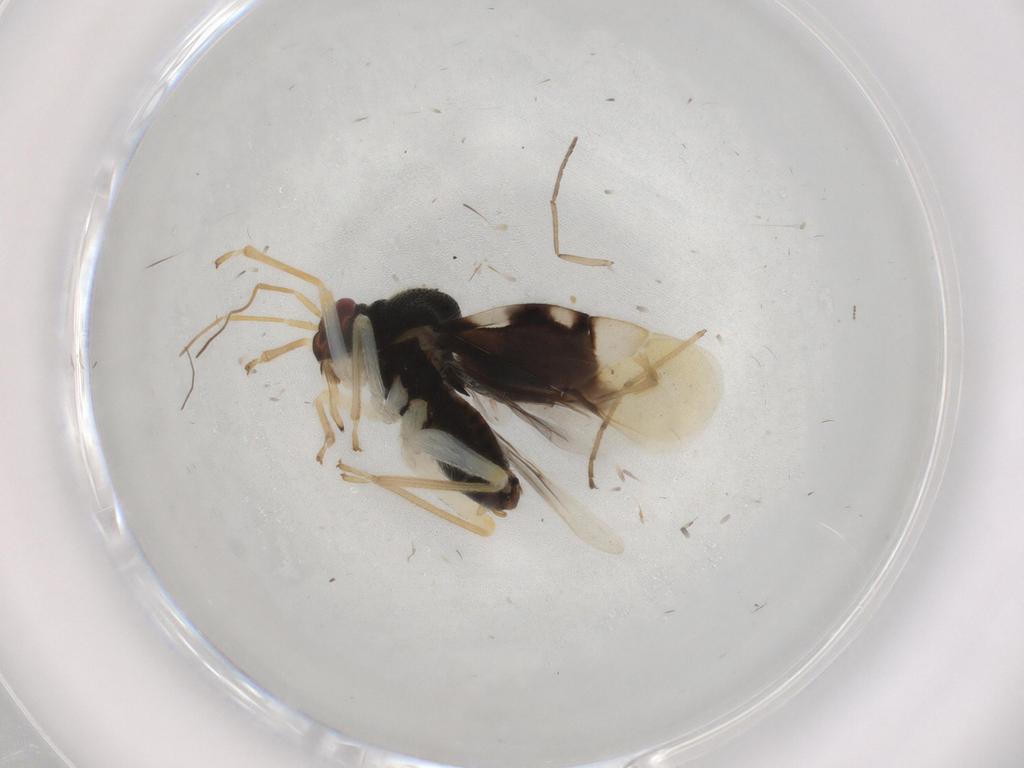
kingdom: Animalia
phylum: Arthropoda
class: Insecta
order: Hemiptera
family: Miridae
